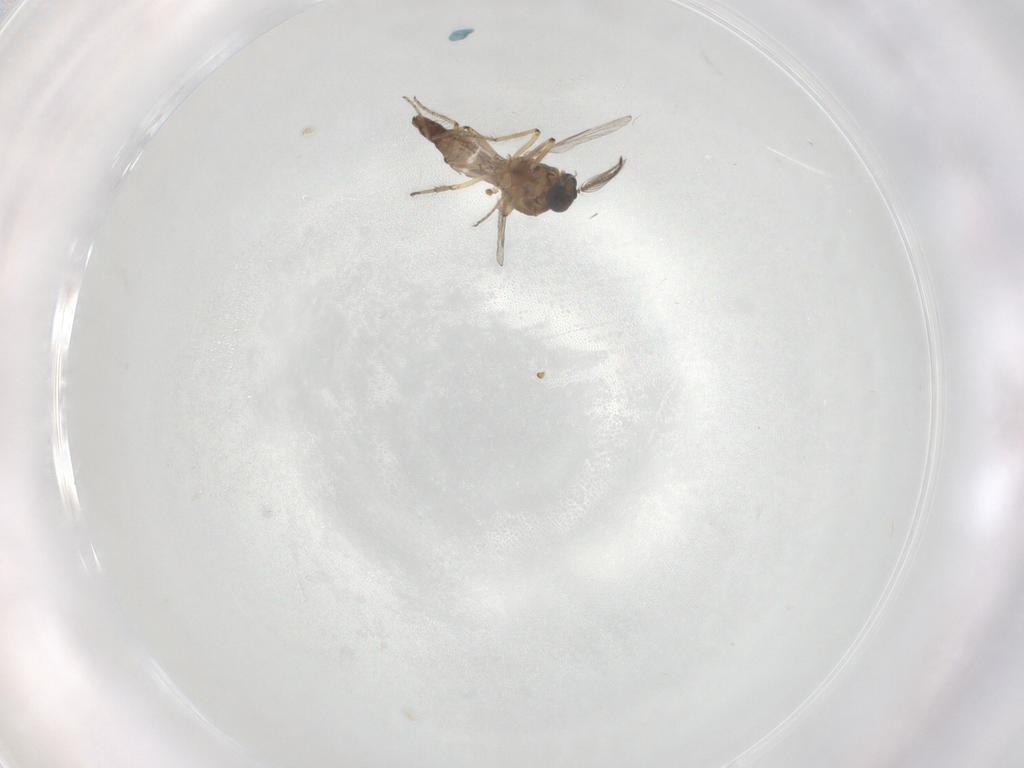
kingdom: Animalia
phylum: Arthropoda
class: Insecta
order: Diptera
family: Ceratopogonidae
